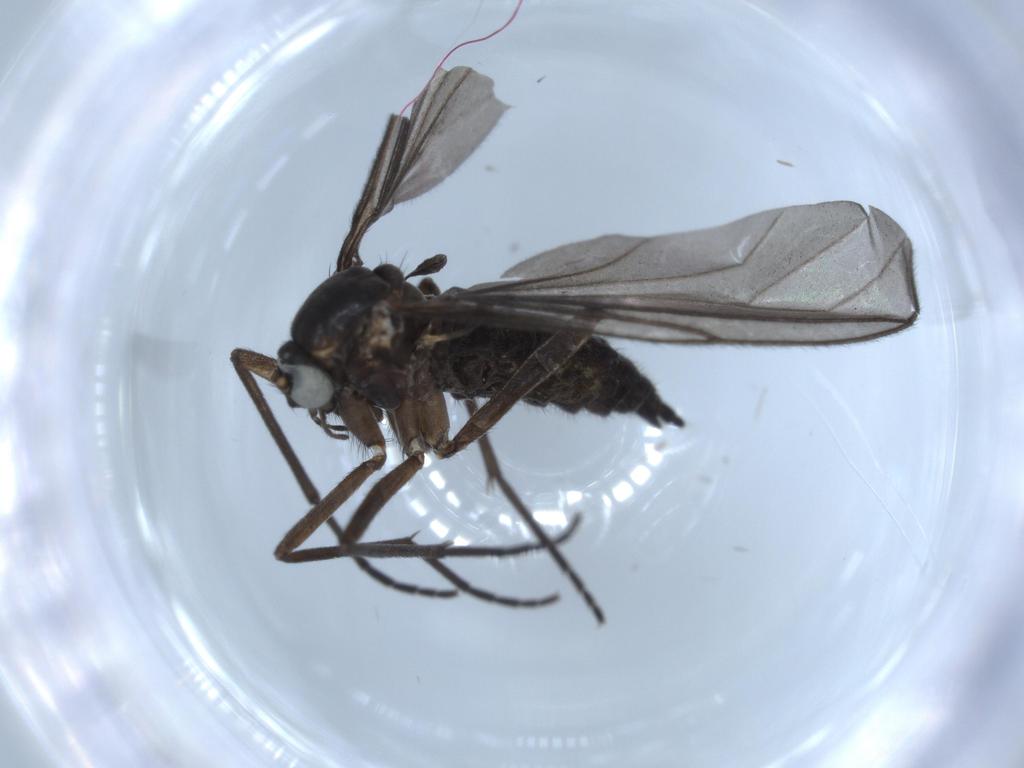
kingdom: Animalia
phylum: Arthropoda
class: Insecta
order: Diptera
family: Sciaridae
